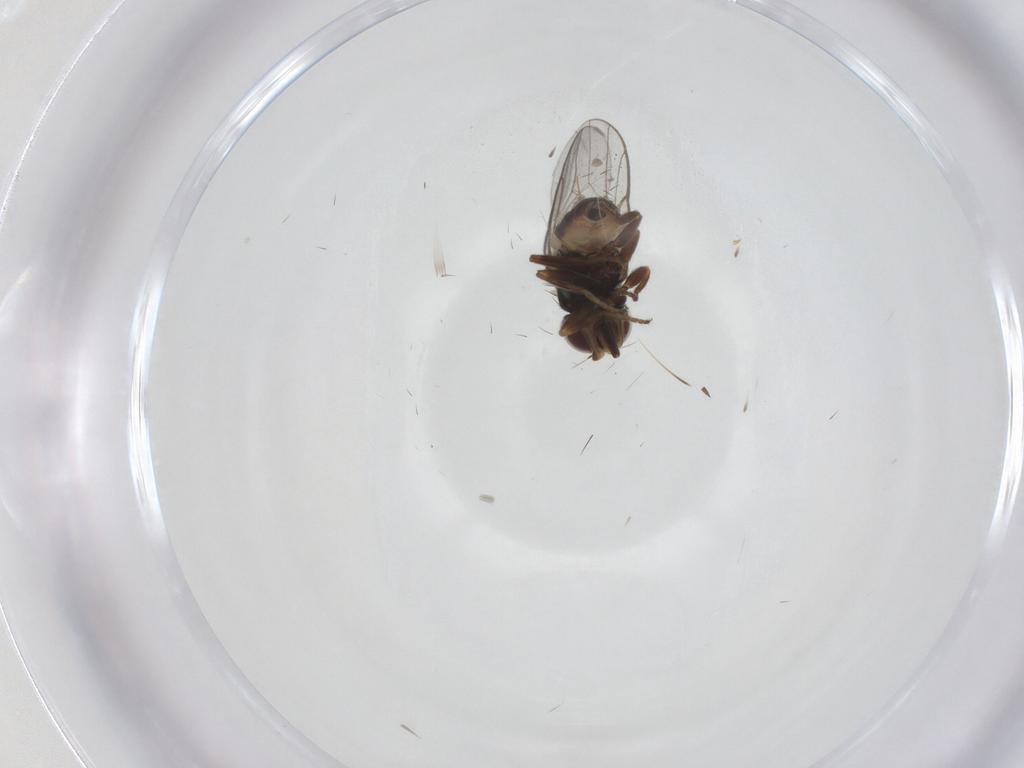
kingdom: Animalia
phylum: Arthropoda
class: Insecta
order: Diptera
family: Chloropidae
